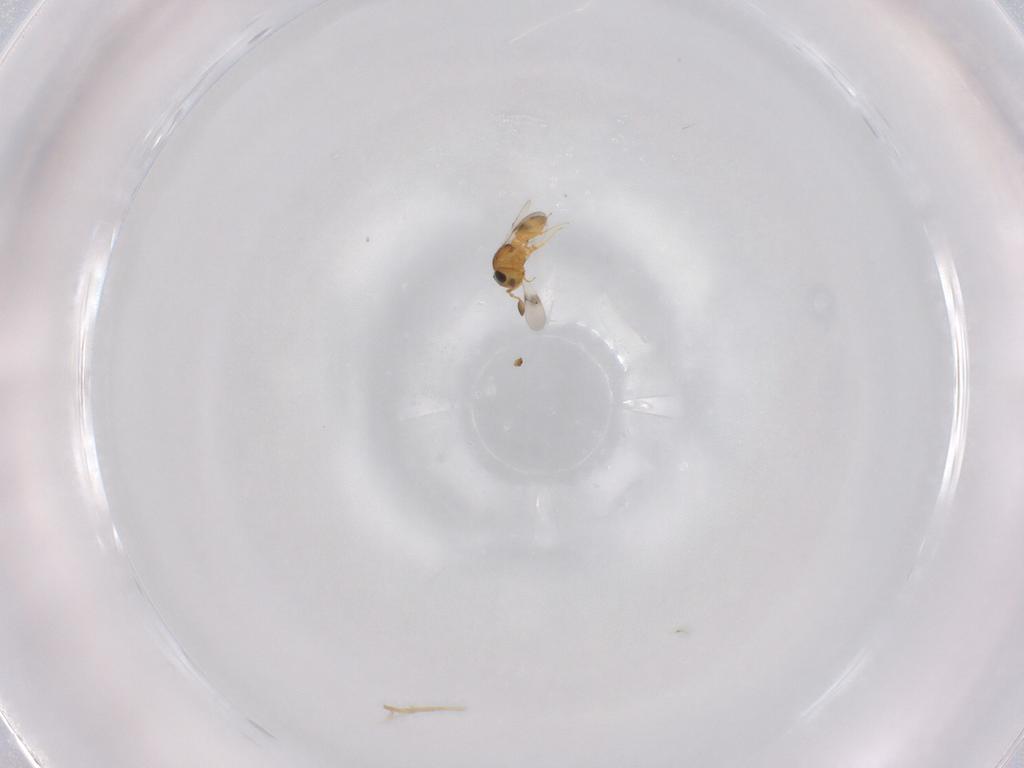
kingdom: Animalia
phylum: Arthropoda
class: Insecta
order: Hymenoptera
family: Scelionidae
